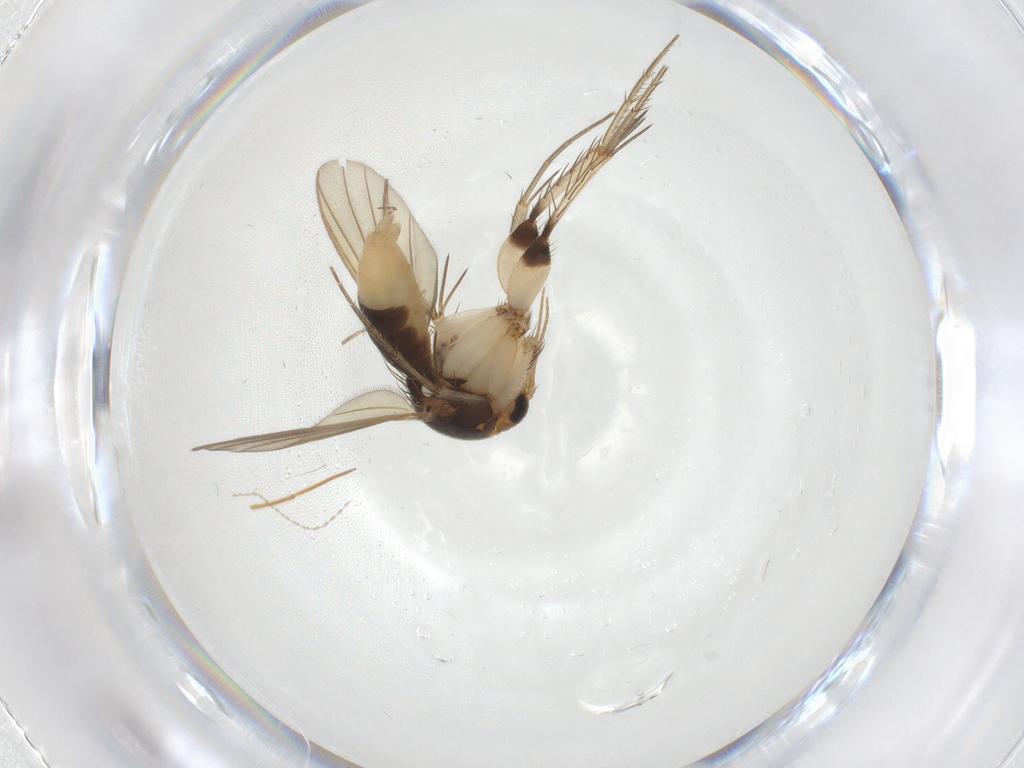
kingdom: Animalia
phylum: Arthropoda
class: Insecta
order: Diptera
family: Mycetophilidae
